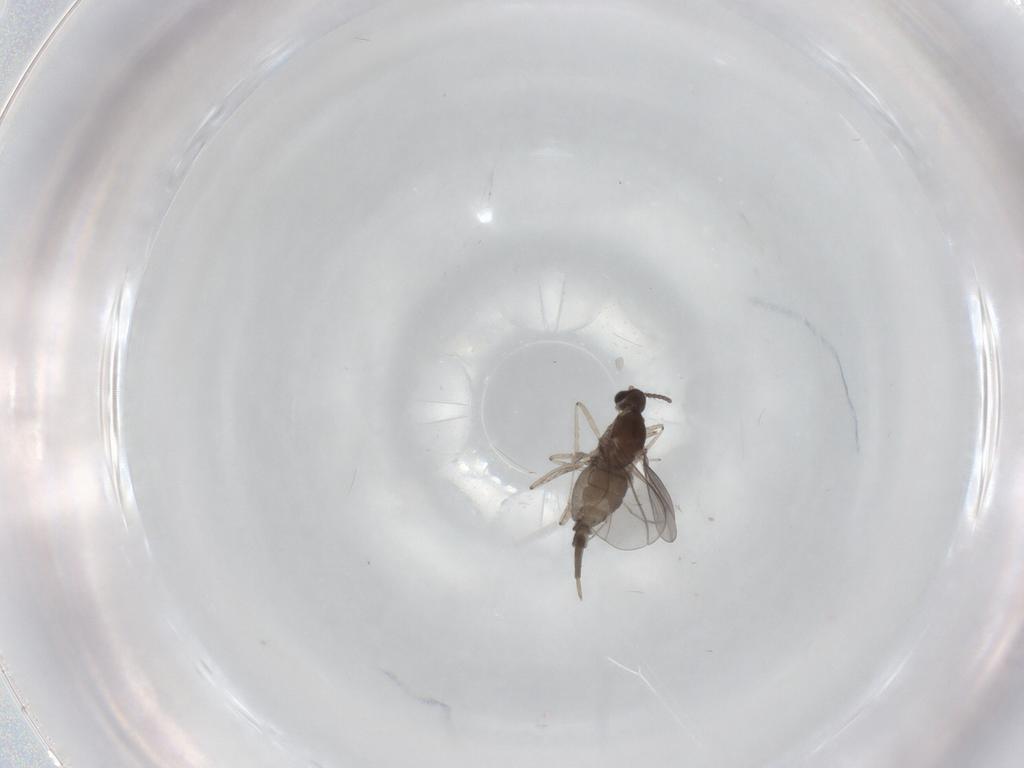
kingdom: Animalia
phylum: Arthropoda
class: Insecta
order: Diptera
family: Cecidomyiidae
